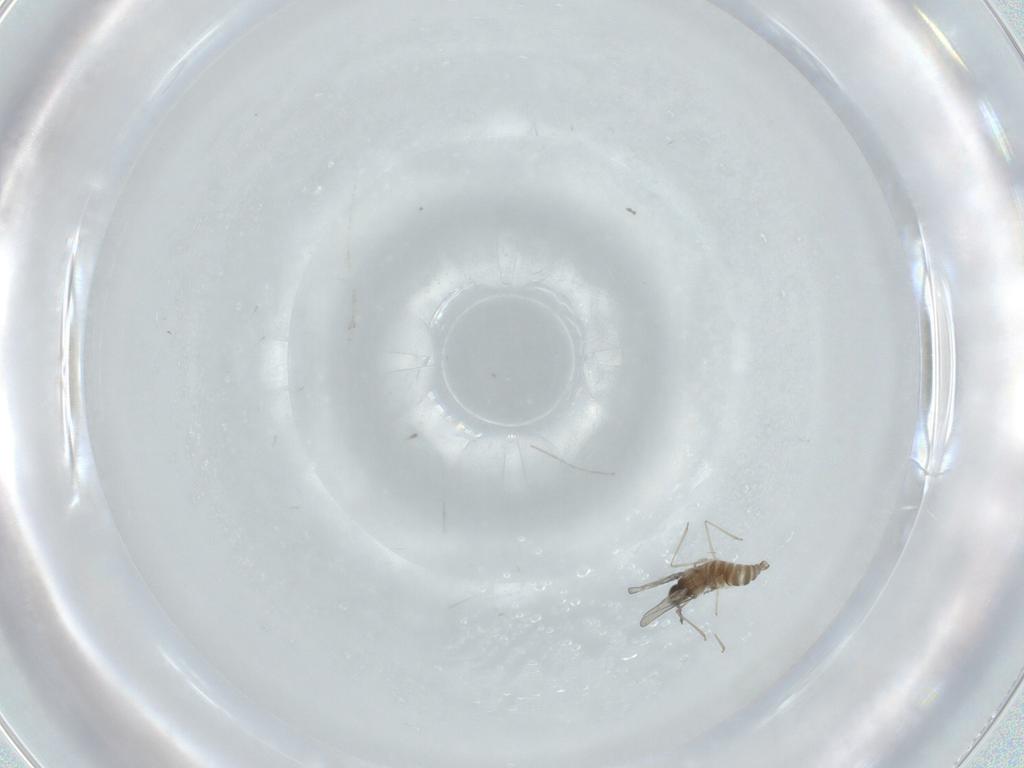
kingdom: Animalia
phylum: Arthropoda
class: Insecta
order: Diptera
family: Cecidomyiidae
